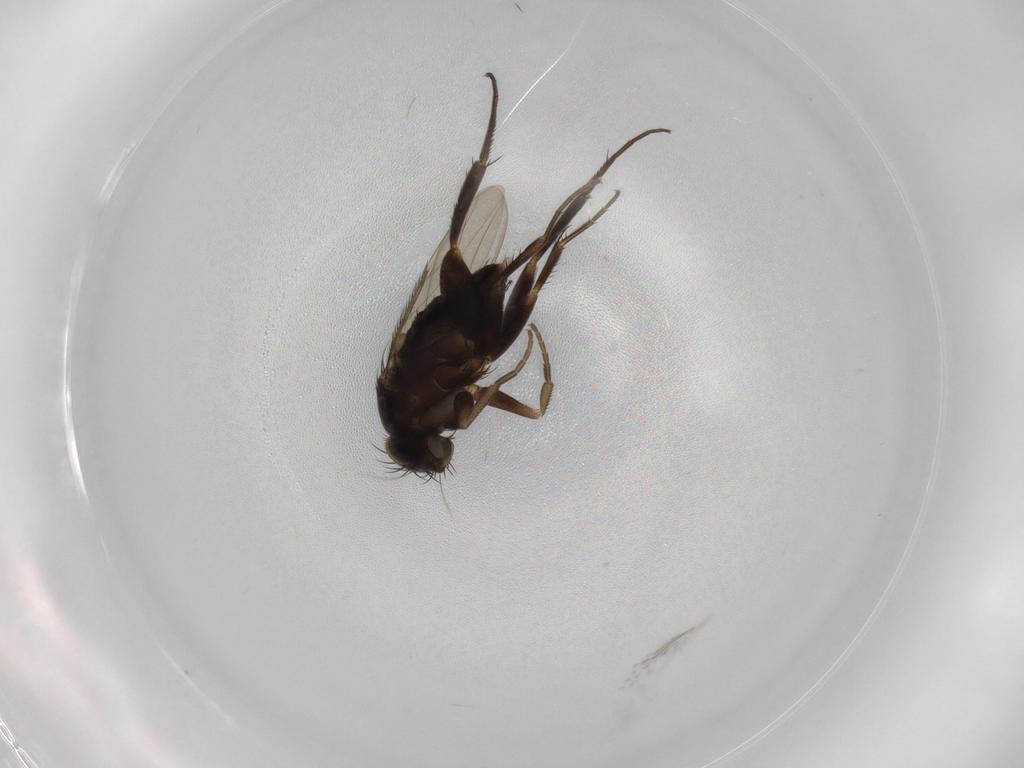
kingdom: Animalia
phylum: Arthropoda
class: Insecta
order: Diptera
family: Phoridae
